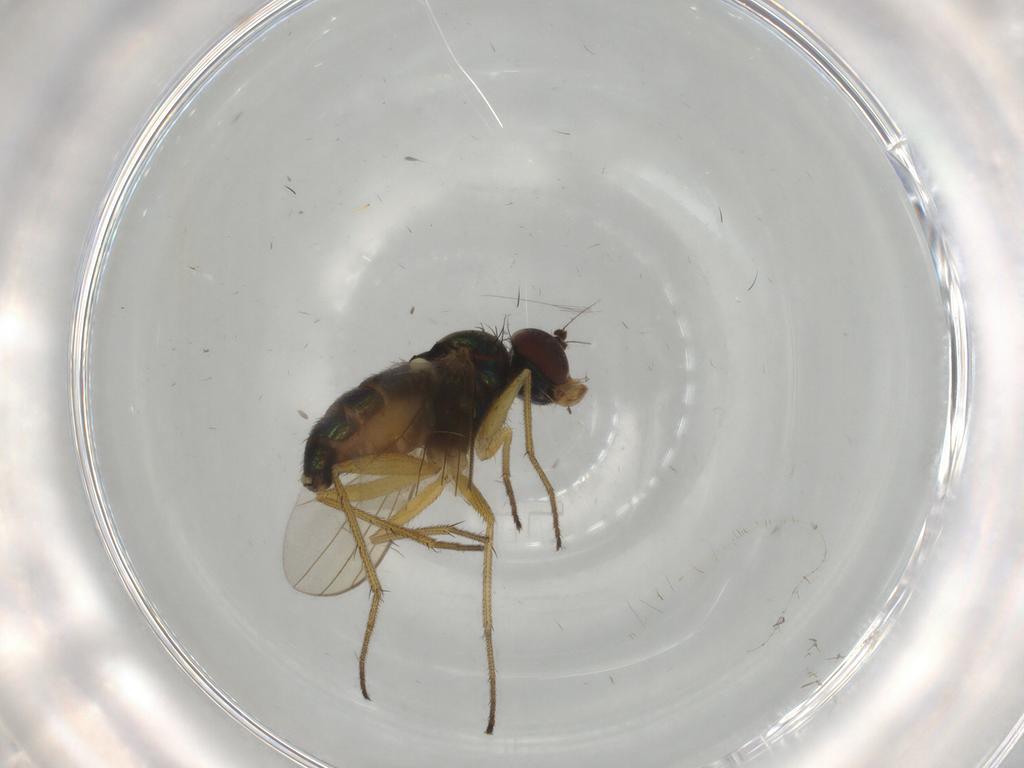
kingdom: Animalia
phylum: Arthropoda
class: Insecta
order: Diptera
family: Dolichopodidae
